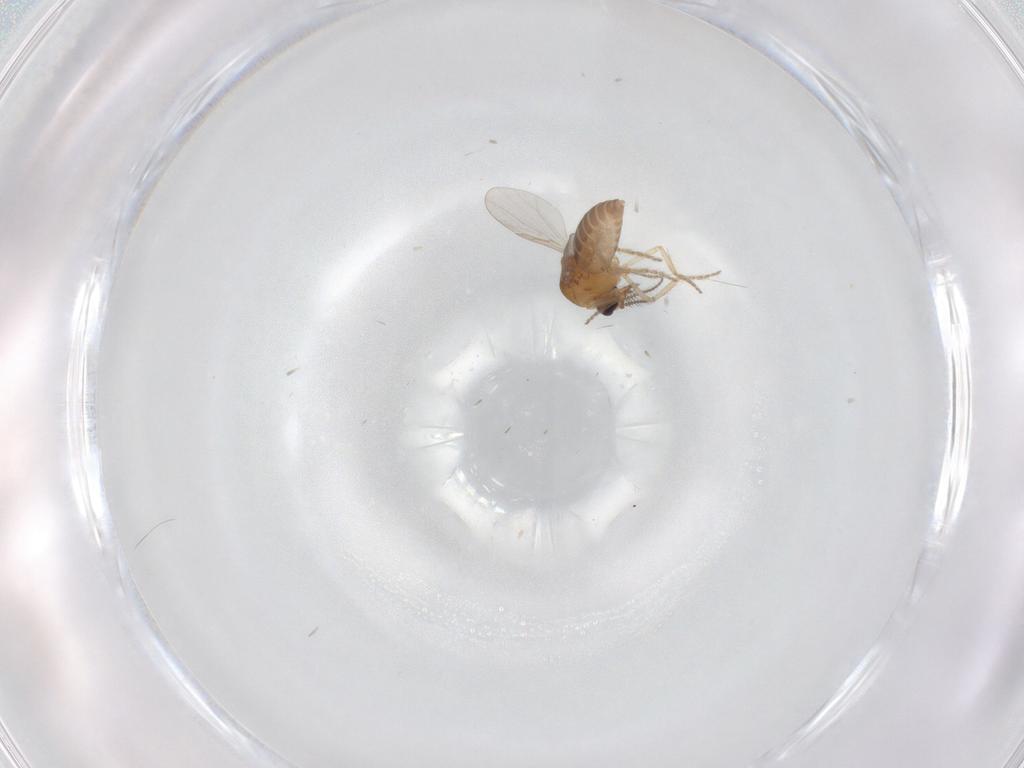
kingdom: Animalia
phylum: Arthropoda
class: Insecta
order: Diptera
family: Ceratopogonidae
